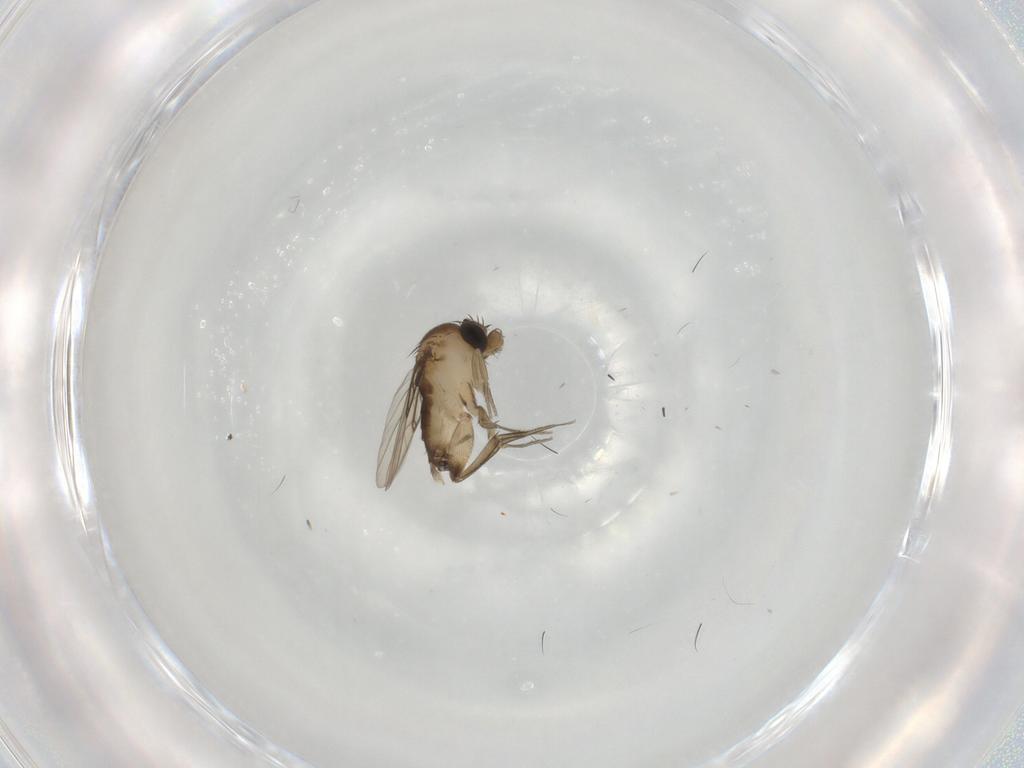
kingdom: Animalia
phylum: Arthropoda
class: Insecta
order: Diptera
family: Phoridae
